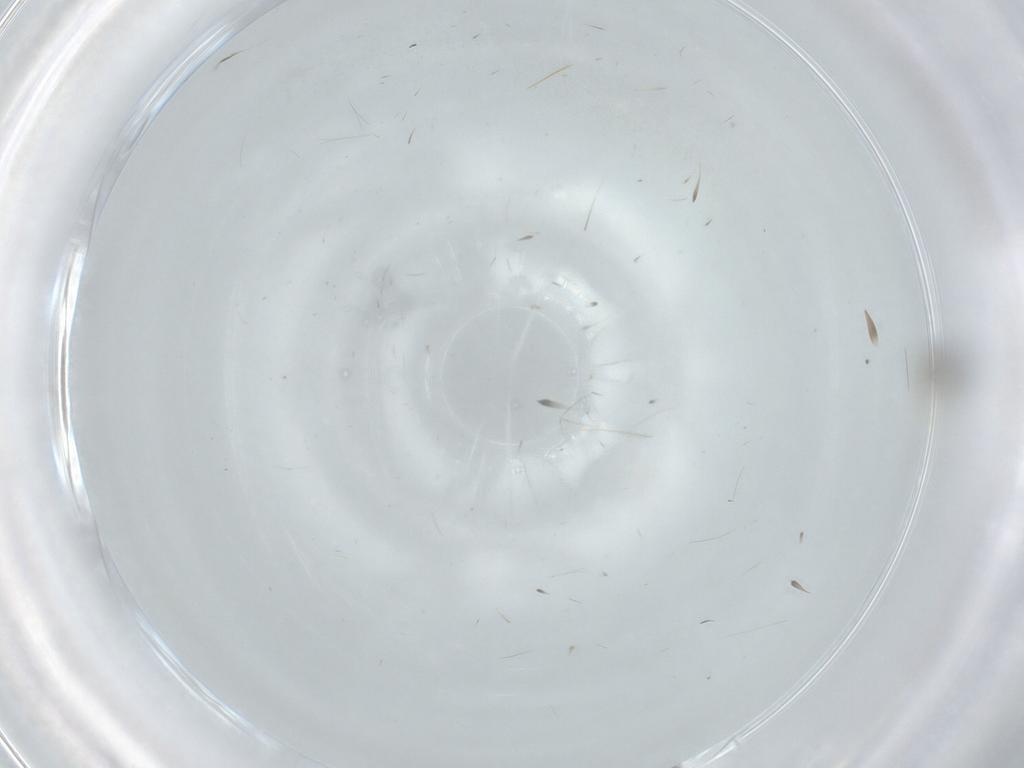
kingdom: Animalia
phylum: Arthropoda
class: Arachnida
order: Trombidiformes
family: Eupodidae
